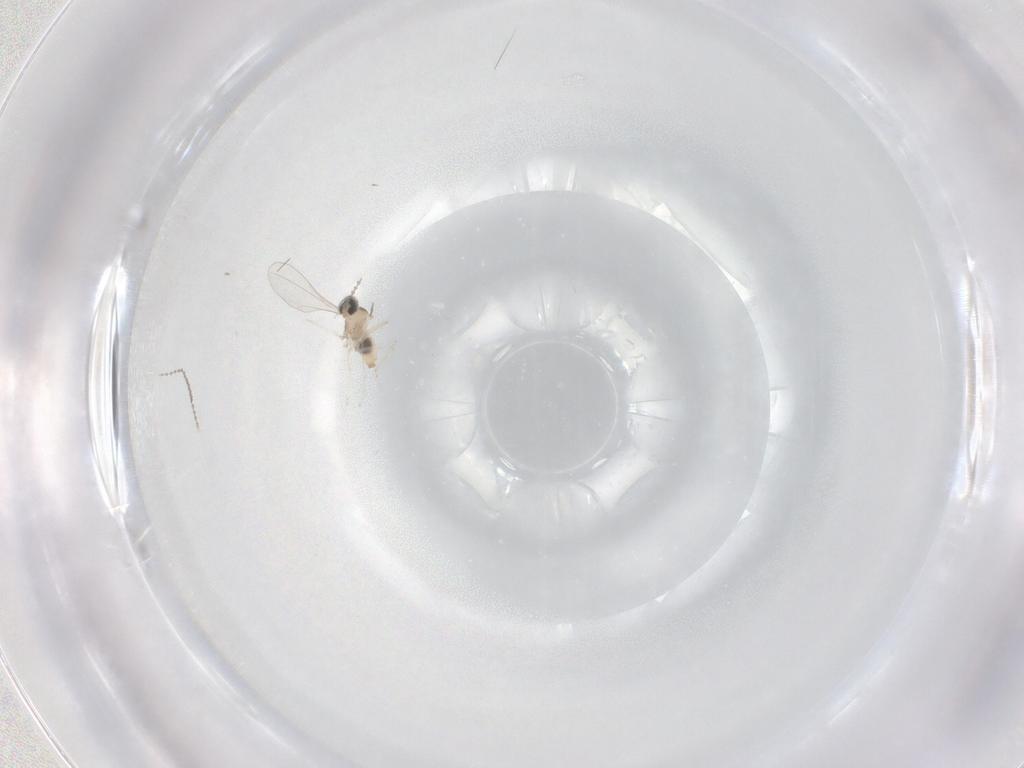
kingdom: Animalia
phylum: Arthropoda
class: Insecta
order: Diptera
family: Cecidomyiidae
